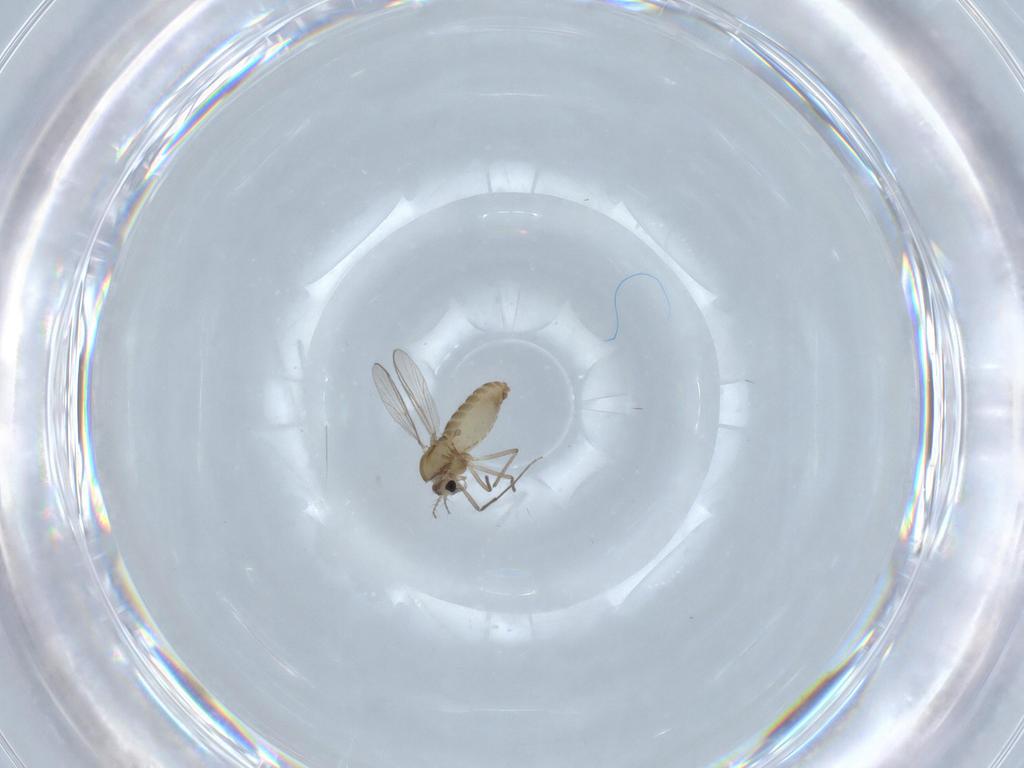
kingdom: Animalia
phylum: Arthropoda
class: Insecta
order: Diptera
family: Chironomidae
